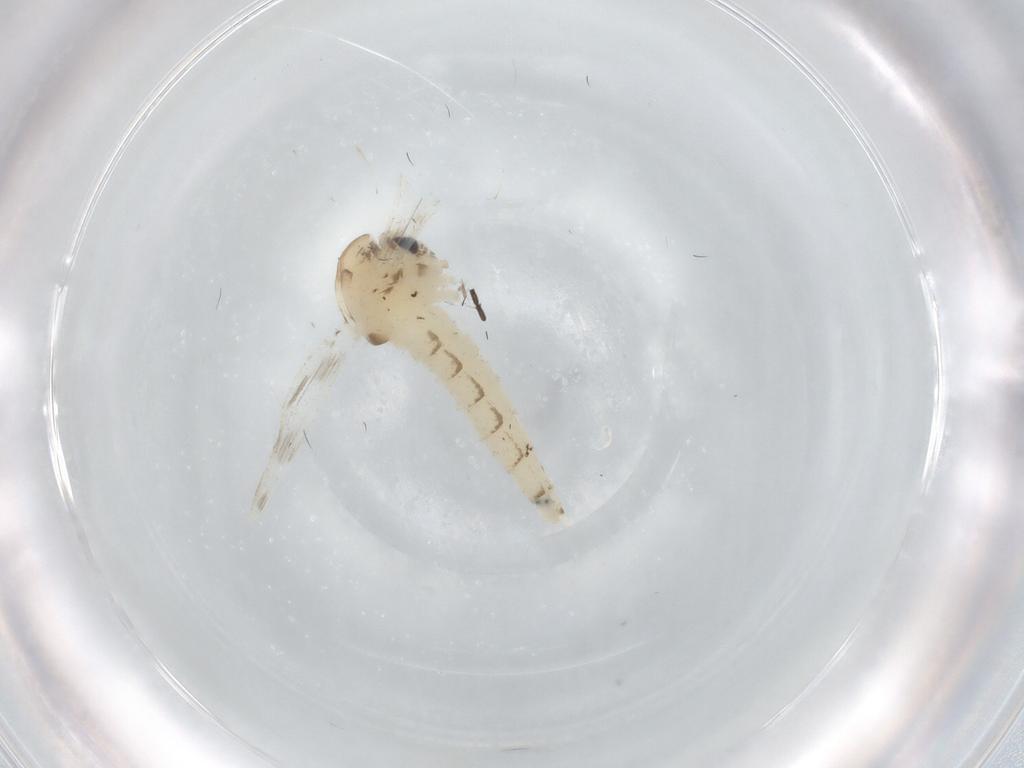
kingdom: Animalia
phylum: Arthropoda
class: Insecta
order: Diptera
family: Chaoboridae
